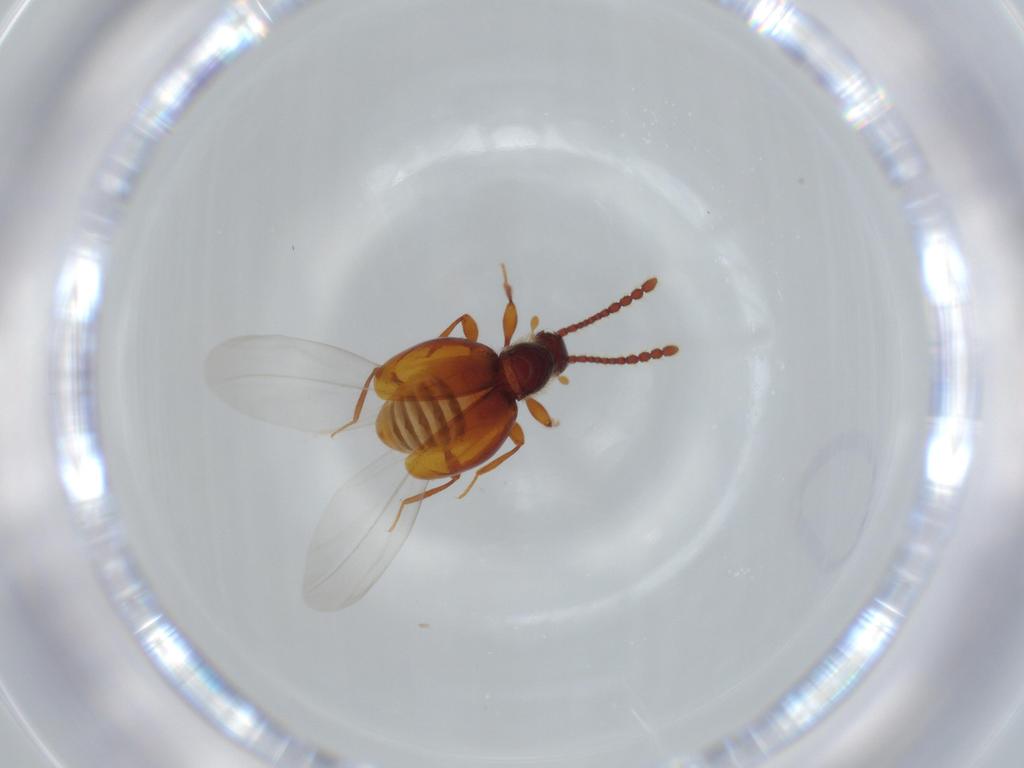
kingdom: Animalia
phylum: Arthropoda
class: Insecta
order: Coleoptera
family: Staphylinidae
